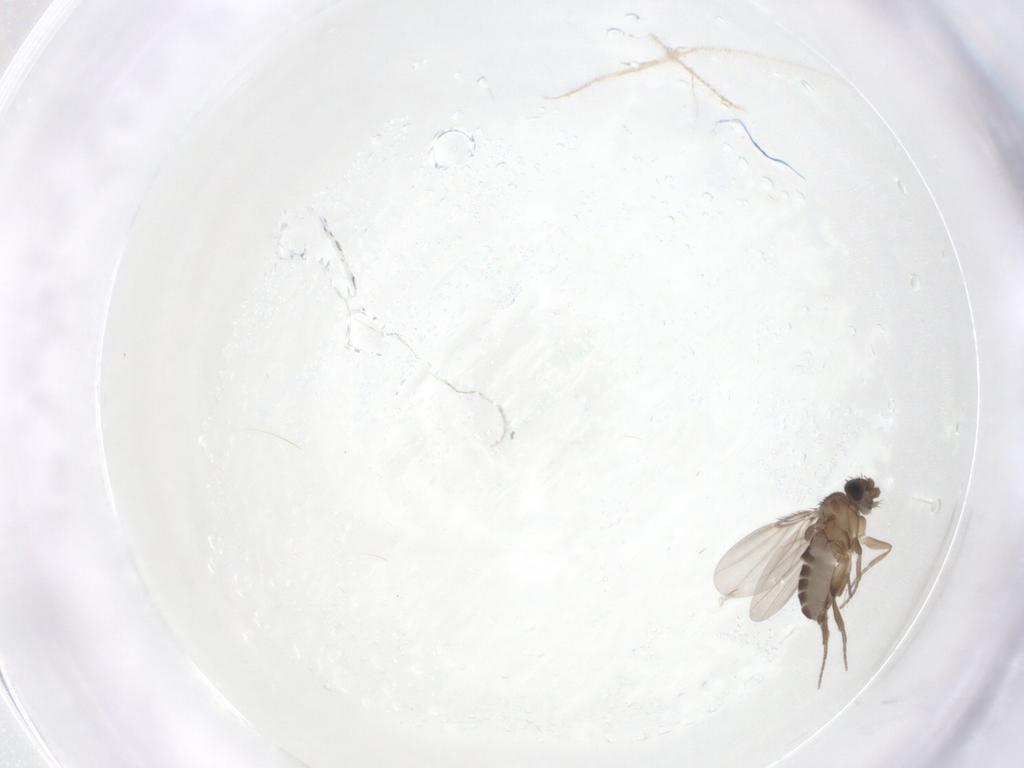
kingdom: Animalia
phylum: Arthropoda
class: Insecta
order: Diptera
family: Phoridae
